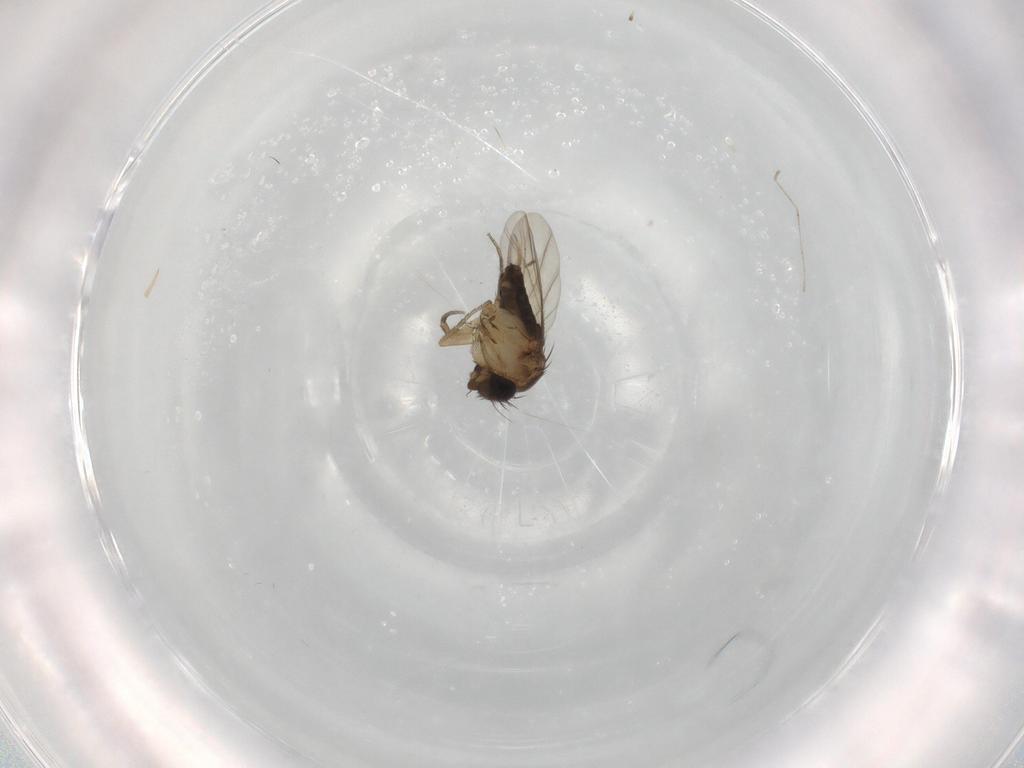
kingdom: Animalia
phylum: Arthropoda
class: Insecta
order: Diptera
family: Phoridae
